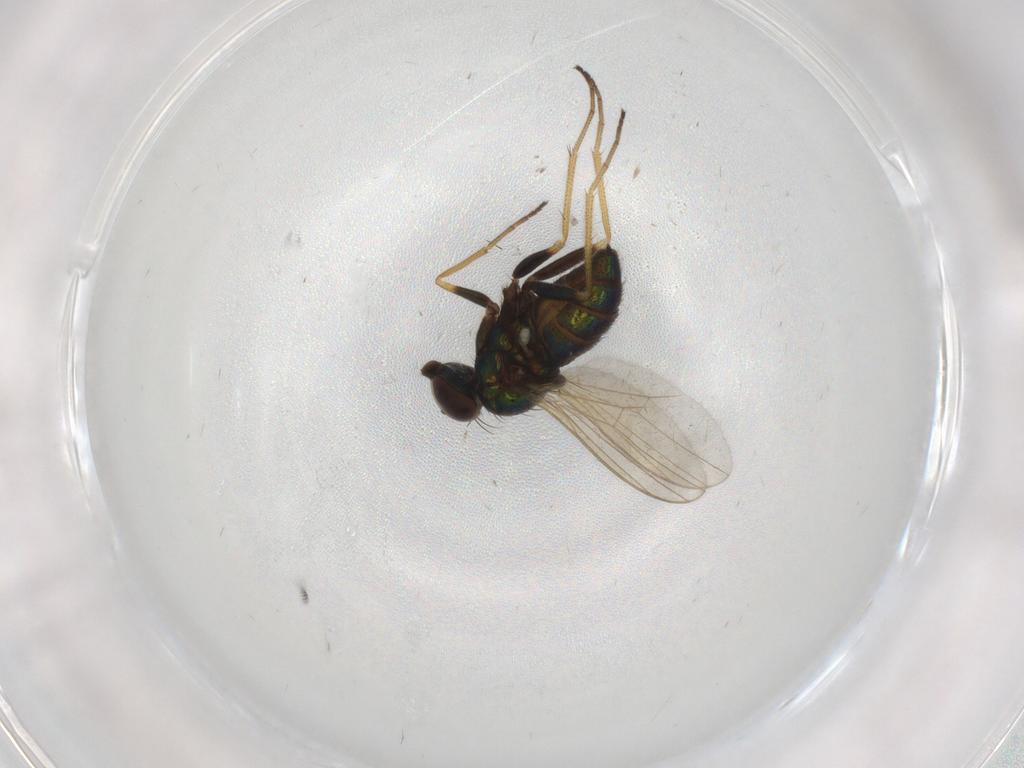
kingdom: Animalia
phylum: Arthropoda
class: Insecta
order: Diptera
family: Dolichopodidae
